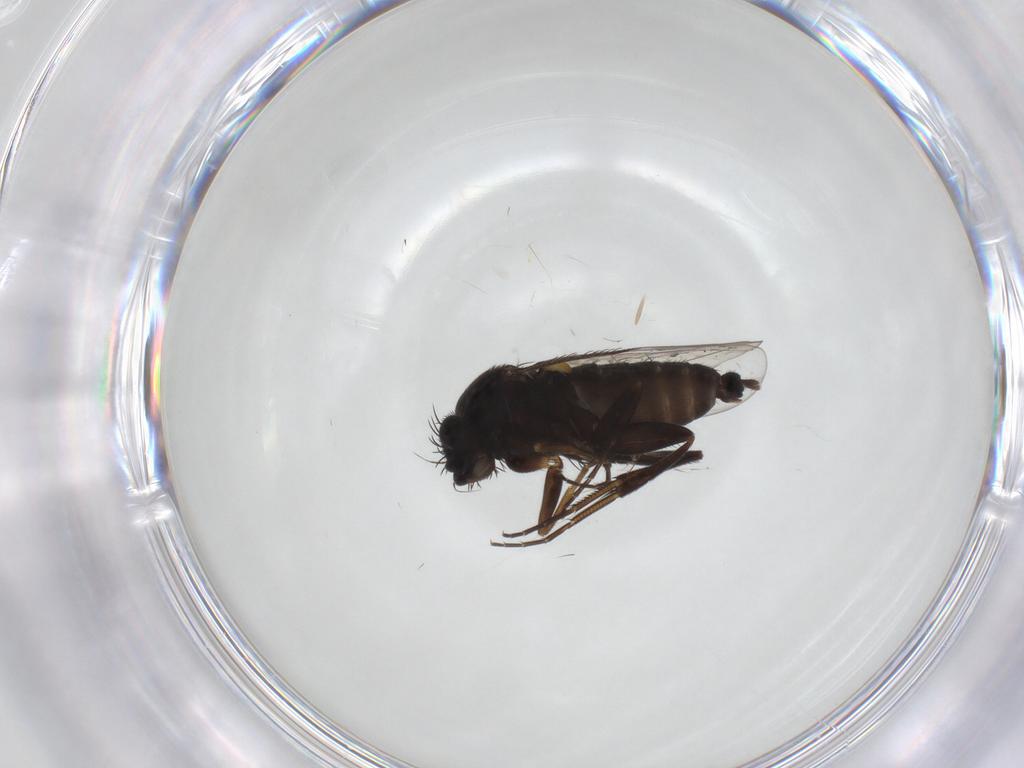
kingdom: Animalia
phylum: Arthropoda
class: Insecta
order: Diptera
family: Phoridae
